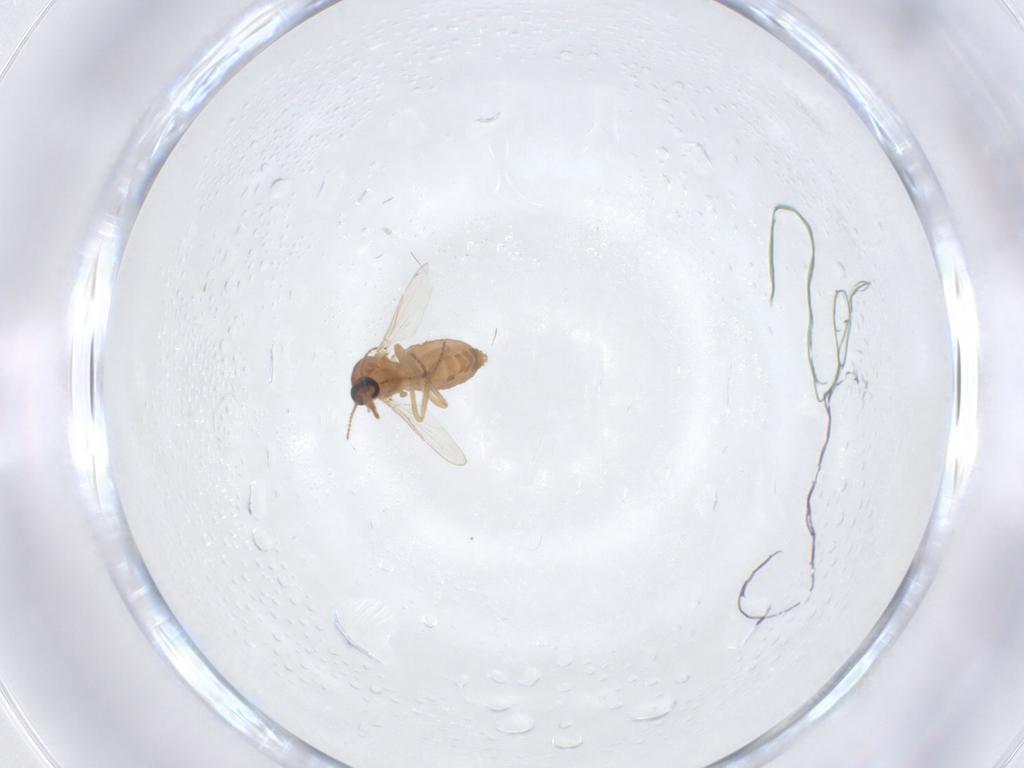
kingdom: Animalia
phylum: Arthropoda
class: Insecta
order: Diptera
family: Ceratopogonidae
